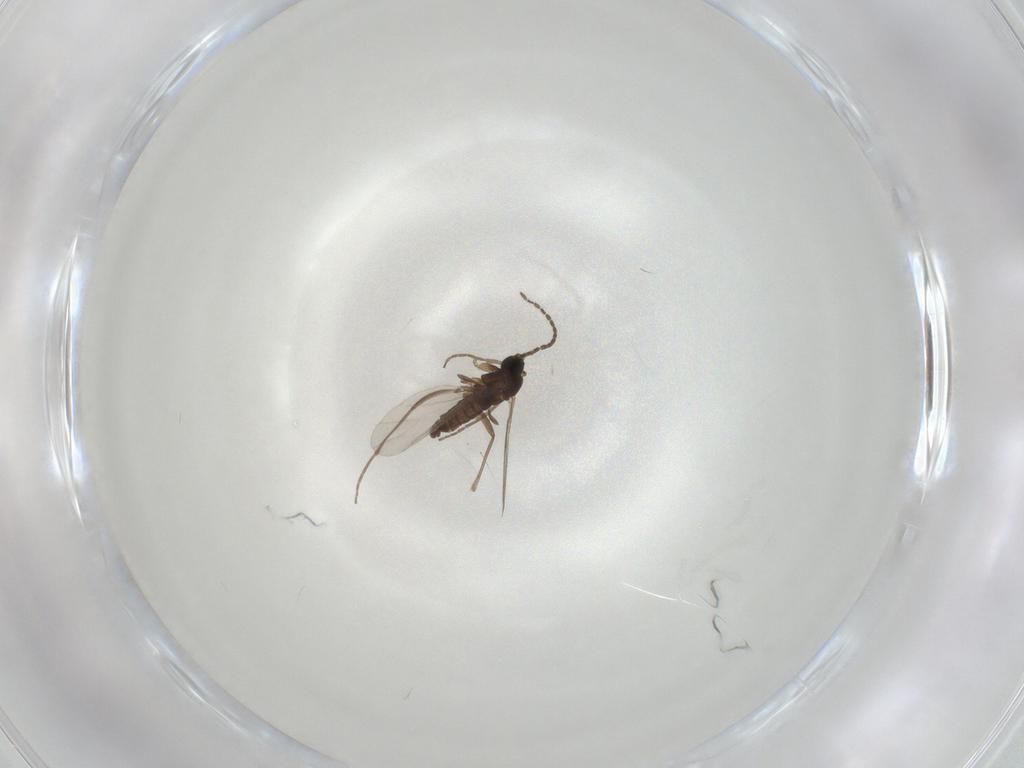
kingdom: Animalia
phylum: Arthropoda
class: Insecta
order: Diptera
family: Sciaridae
